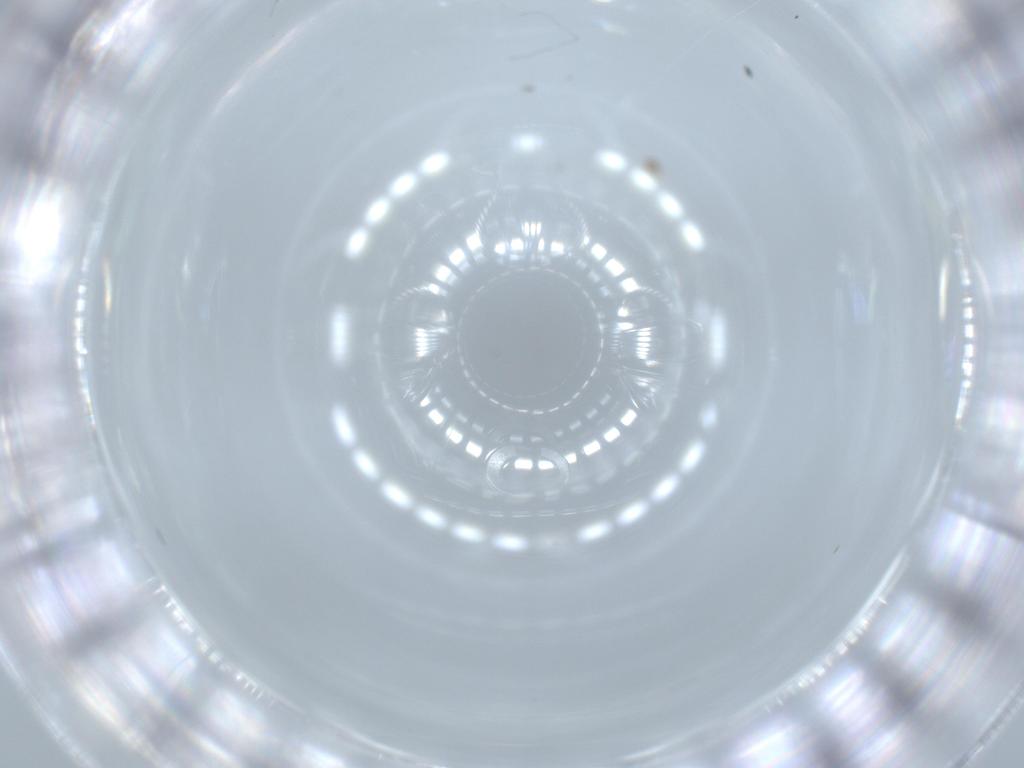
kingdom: Animalia
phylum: Arthropoda
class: Insecta
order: Diptera
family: Cecidomyiidae
